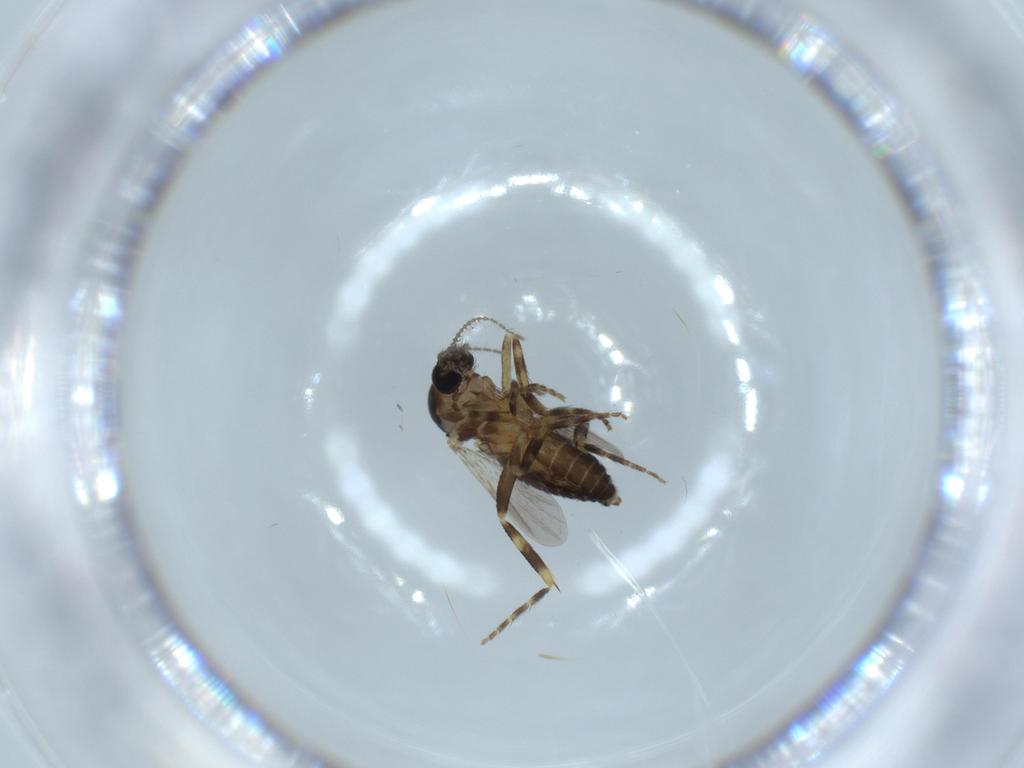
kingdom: Animalia
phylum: Arthropoda
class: Insecta
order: Diptera
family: Ceratopogonidae
